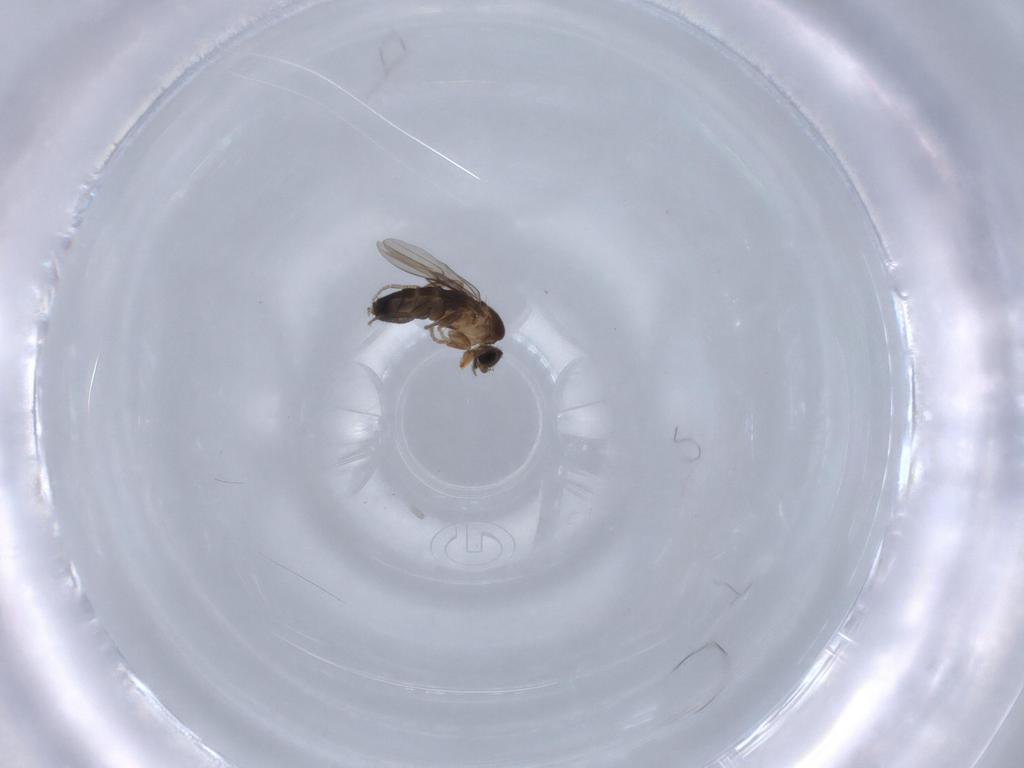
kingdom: Animalia
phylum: Arthropoda
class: Insecta
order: Diptera
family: Phoridae
